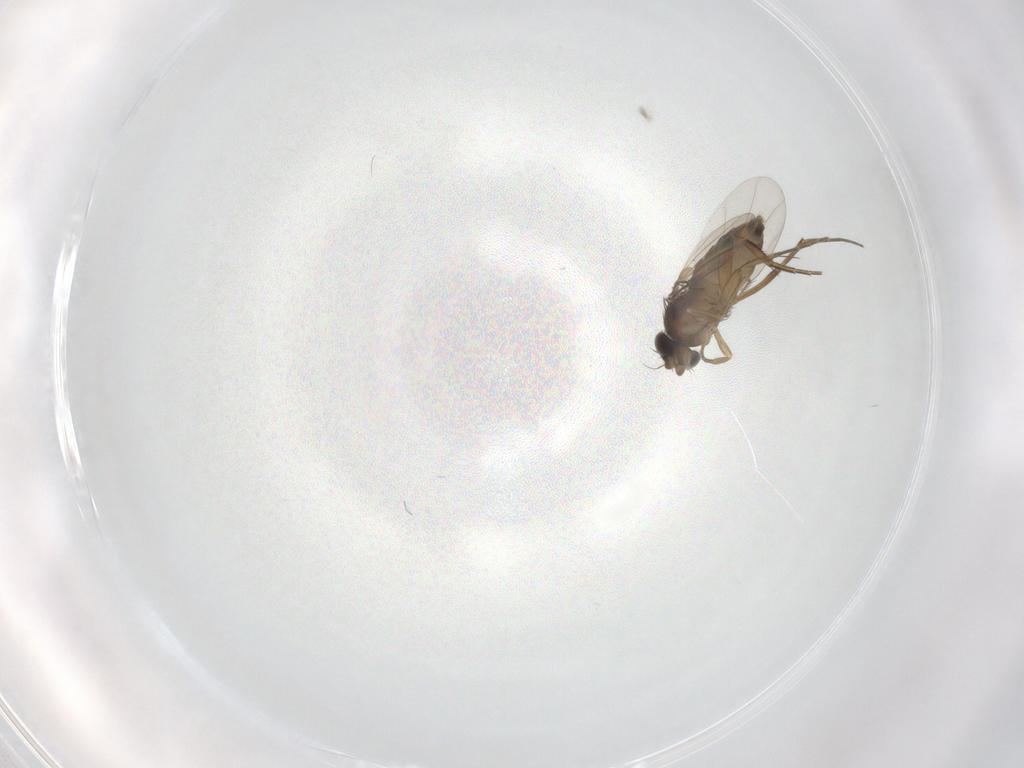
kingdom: Animalia
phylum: Arthropoda
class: Insecta
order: Diptera
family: Phoridae
